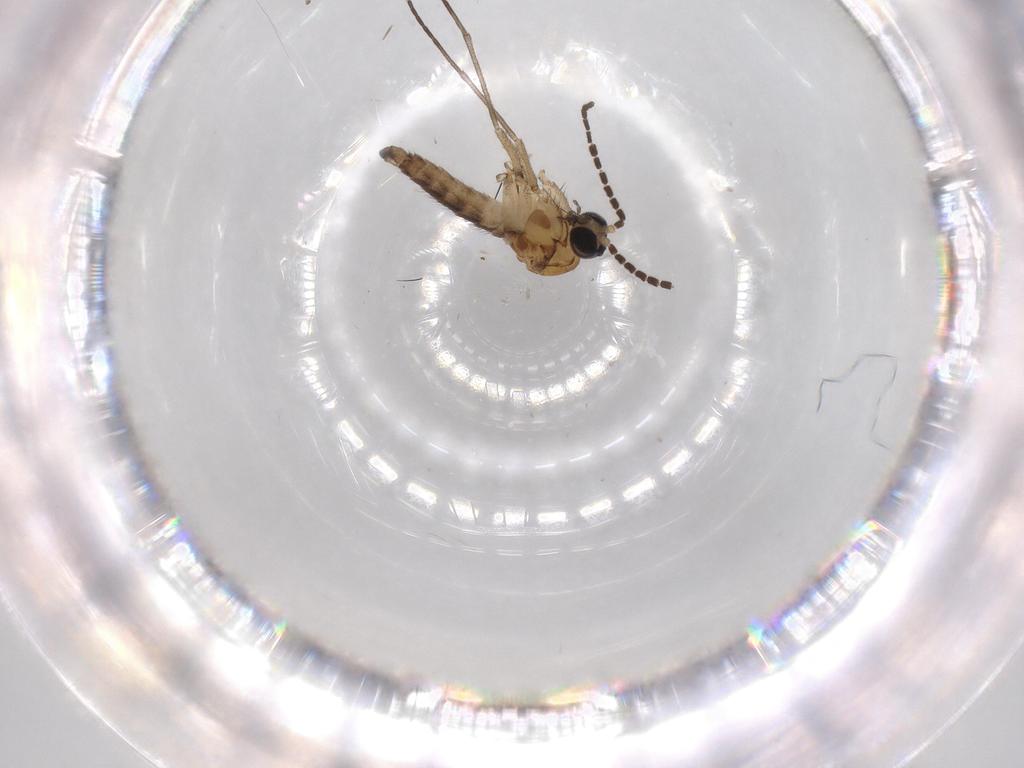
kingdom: Animalia
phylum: Arthropoda
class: Insecta
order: Diptera
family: Sciaridae
